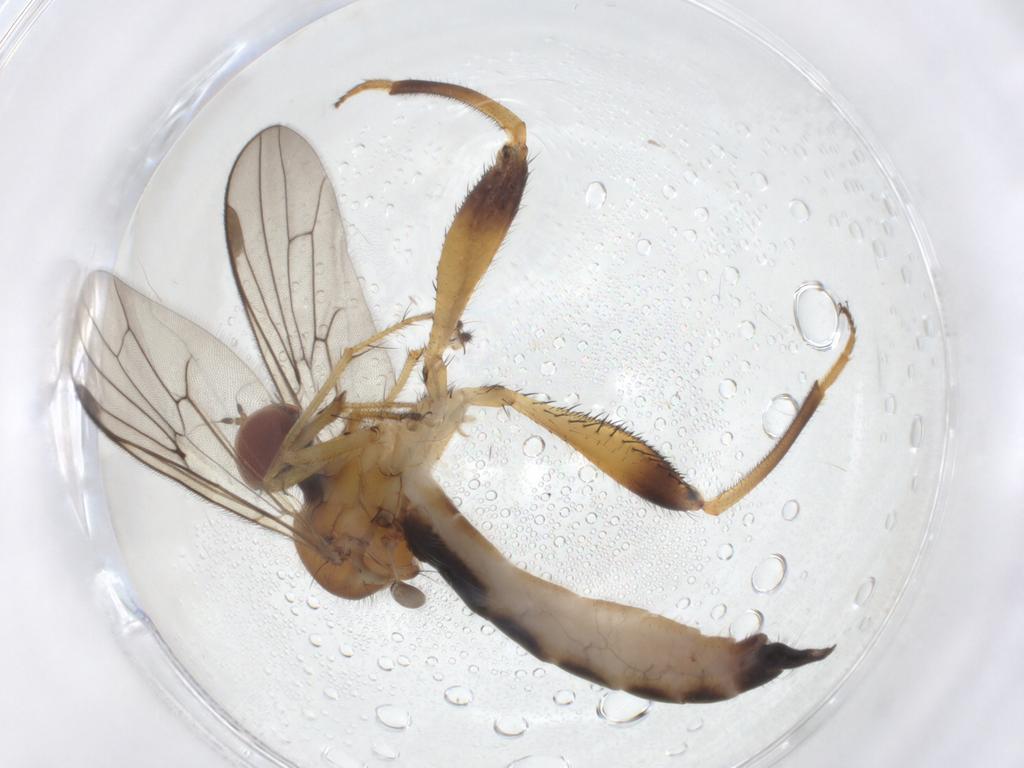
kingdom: Animalia
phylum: Arthropoda
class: Insecta
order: Diptera
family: Hybotidae
